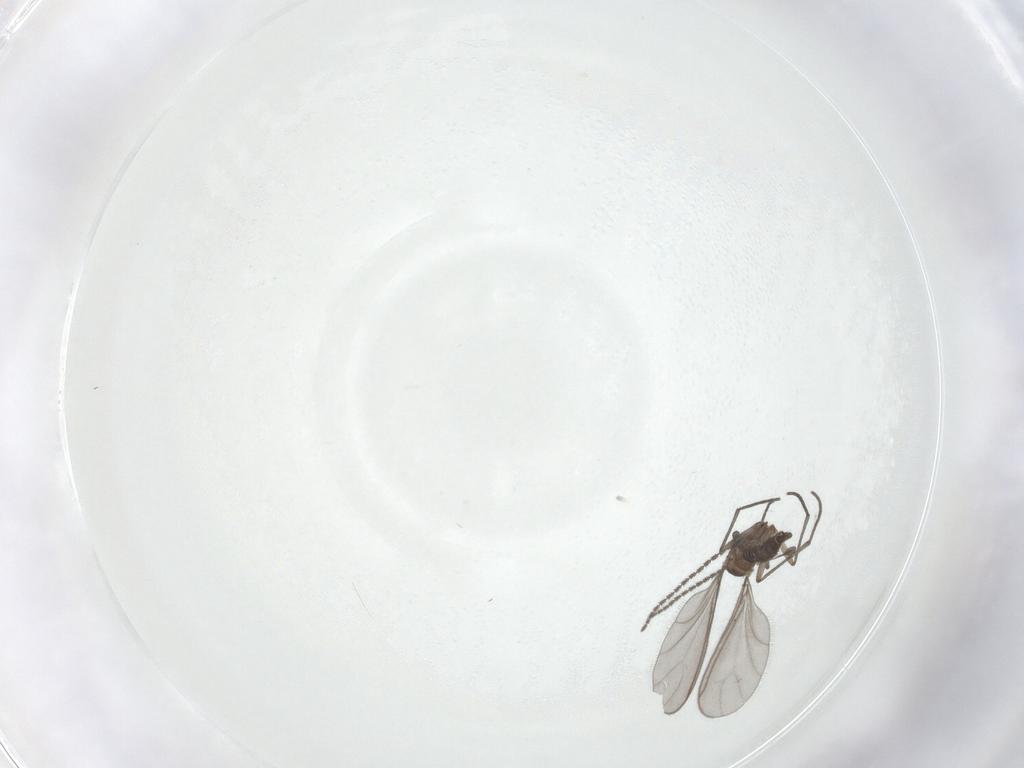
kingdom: Animalia
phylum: Arthropoda
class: Insecta
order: Diptera
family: Sciaridae
